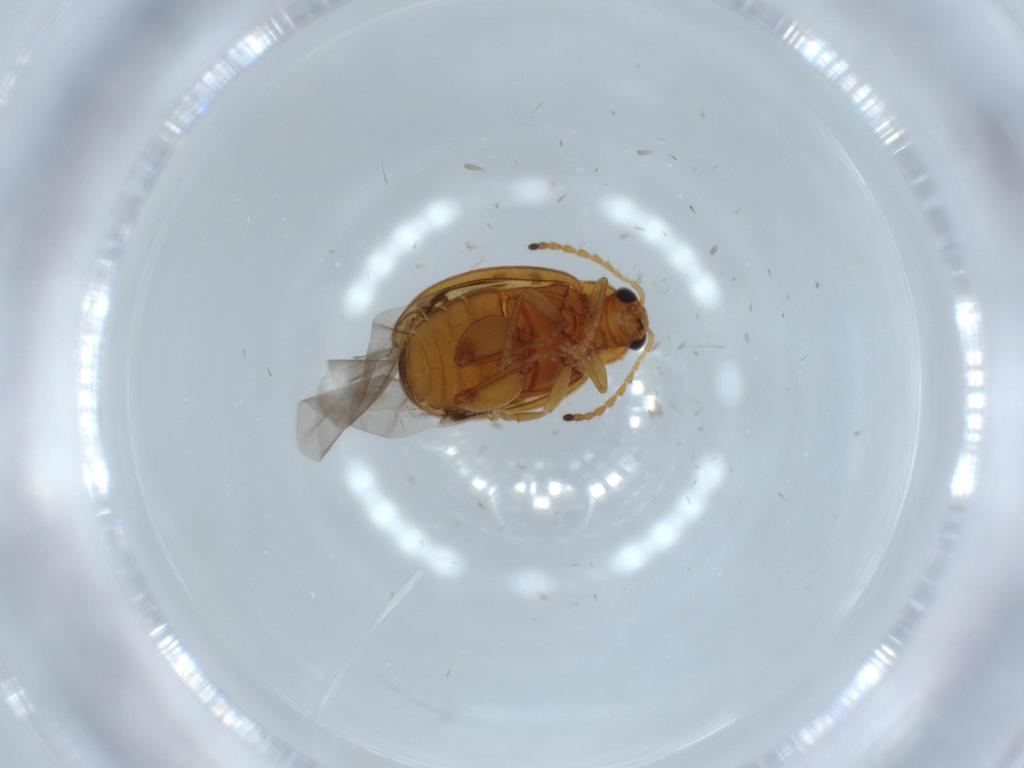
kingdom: Animalia
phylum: Arthropoda
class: Insecta
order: Coleoptera
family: Chrysomelidae
